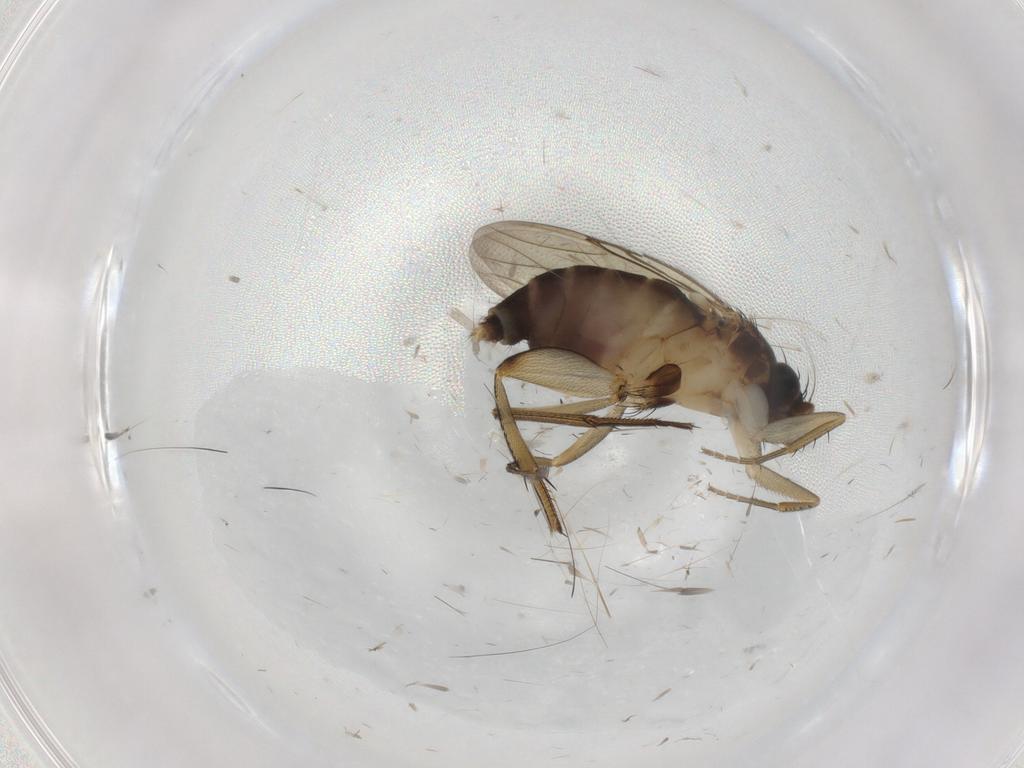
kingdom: Animalia
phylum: Arthropoda
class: Insecta
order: Diptera
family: Phoridae
